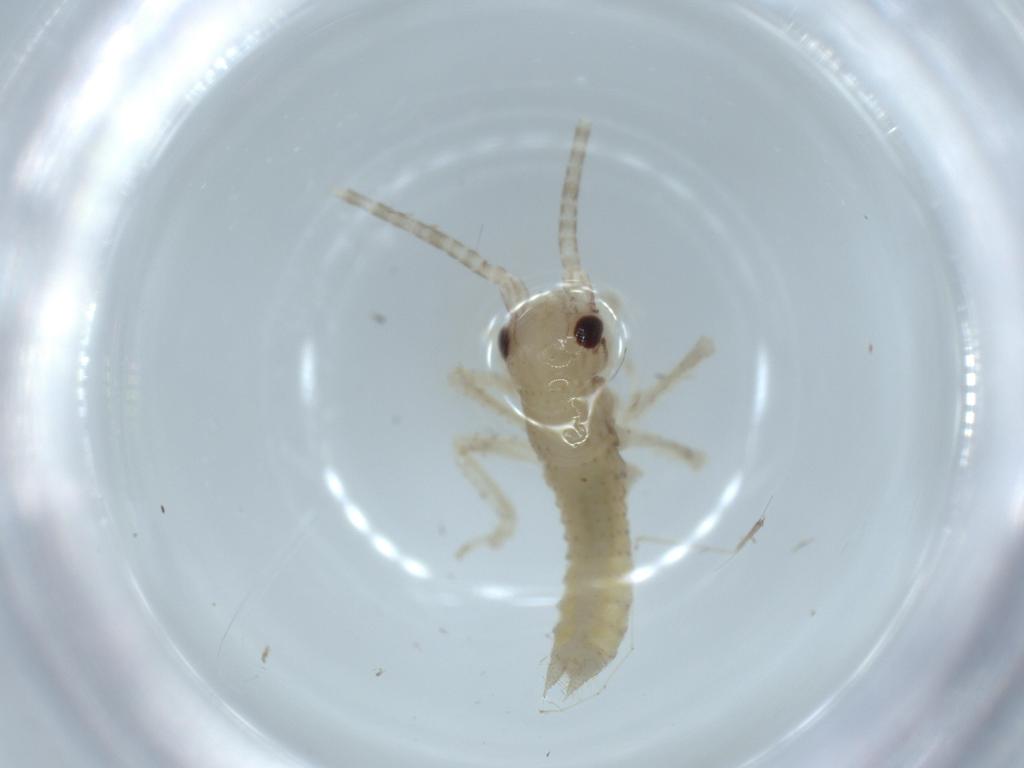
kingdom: Animalia
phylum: Arthropoda
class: Insecta
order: Orthoptera
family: Gryllidae
